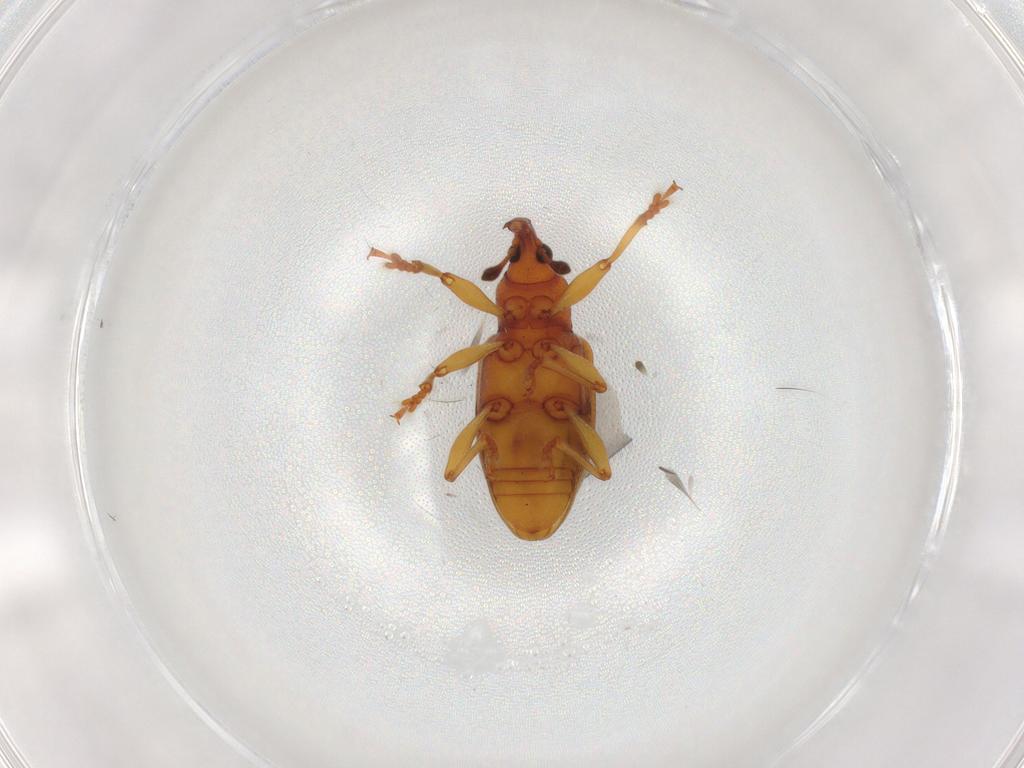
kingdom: Animalia
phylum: Arthropoda
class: Insecta
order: Coleoptera
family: Curculionidae
